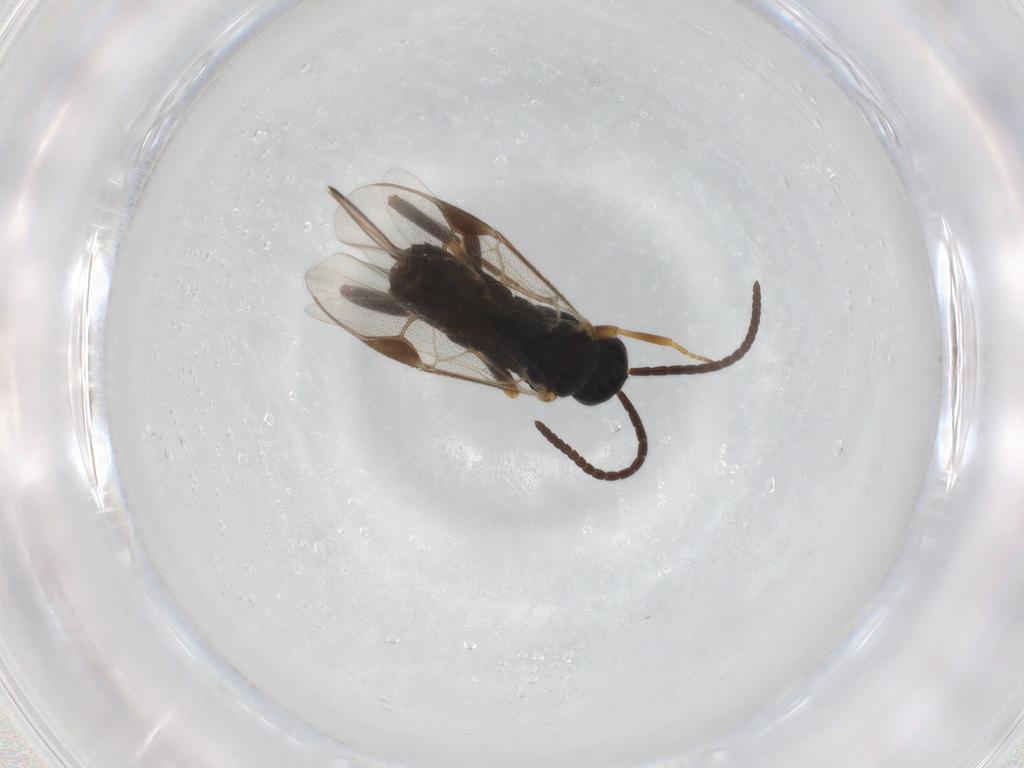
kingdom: Animalia
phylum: Arthropoda
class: Insecta
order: Hymenoptera
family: Braconidae
